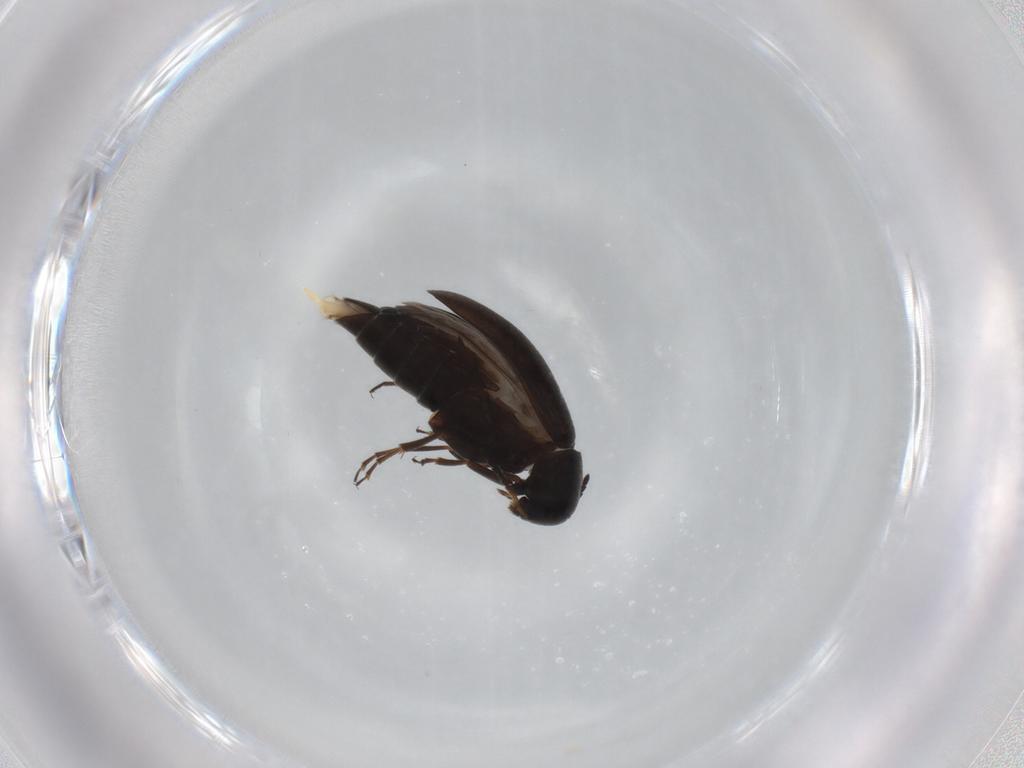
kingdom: Animalia
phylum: Arthropoda
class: Insecta
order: Coleoptera
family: Scraptiidae
